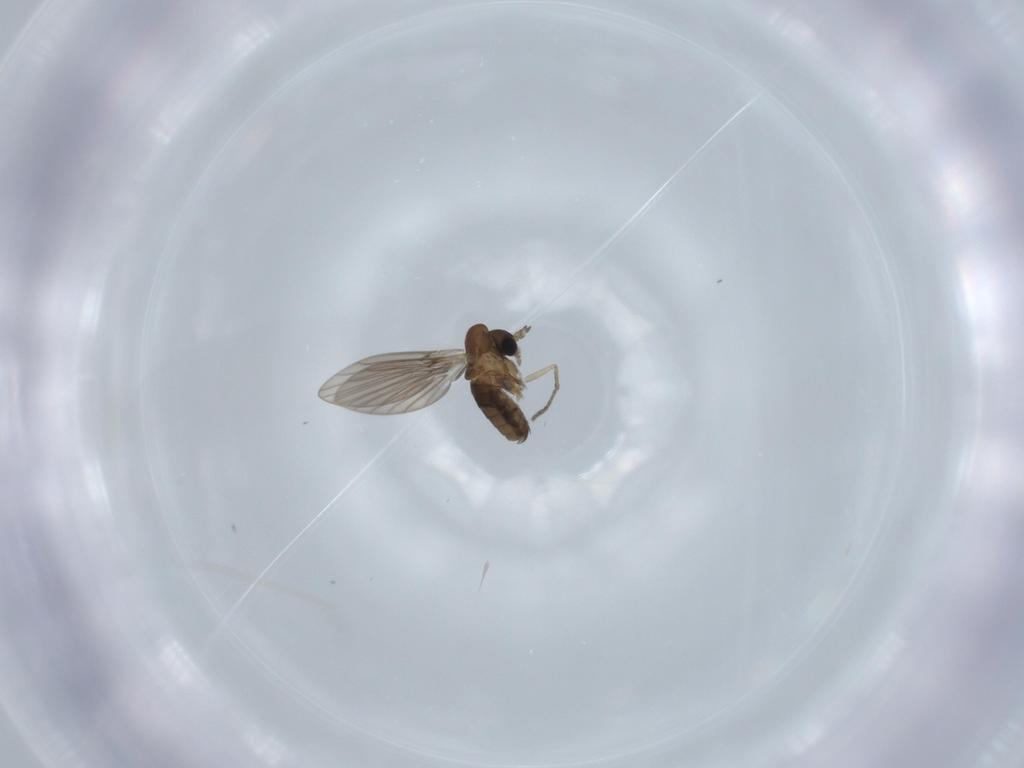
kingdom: Animalia
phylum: Arthropoda
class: Insecta
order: Diptera
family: Psychodidae
